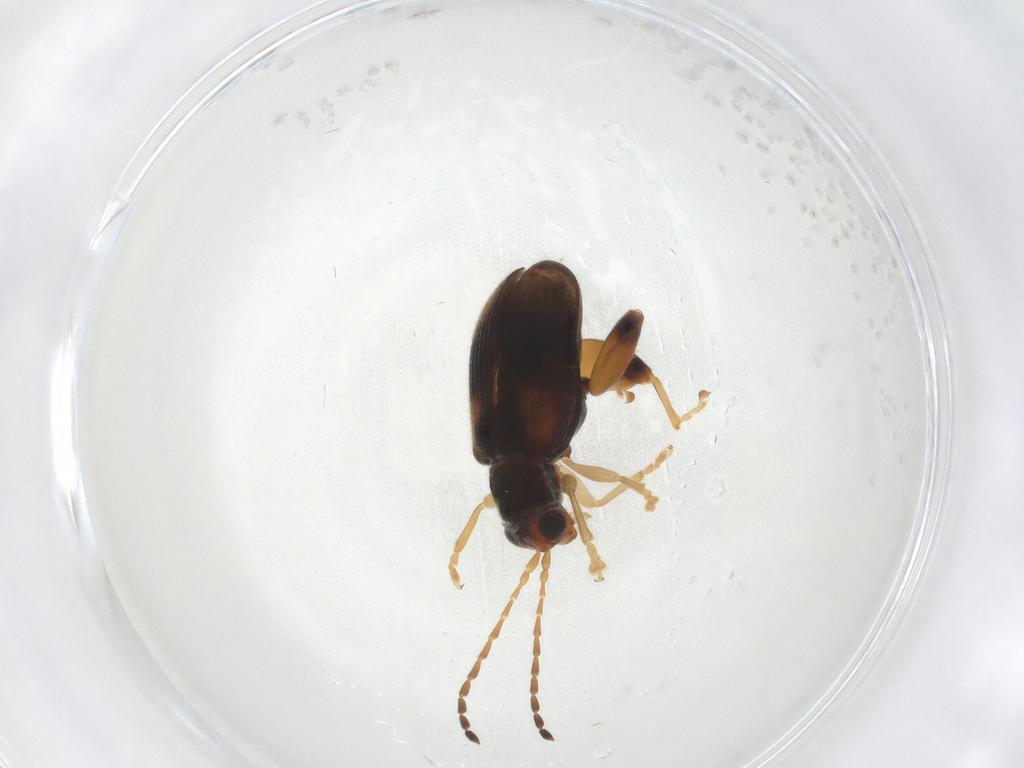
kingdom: Animalia
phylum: Arthropoda
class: Insecta
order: Coleoptera
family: Chrysomelidae
